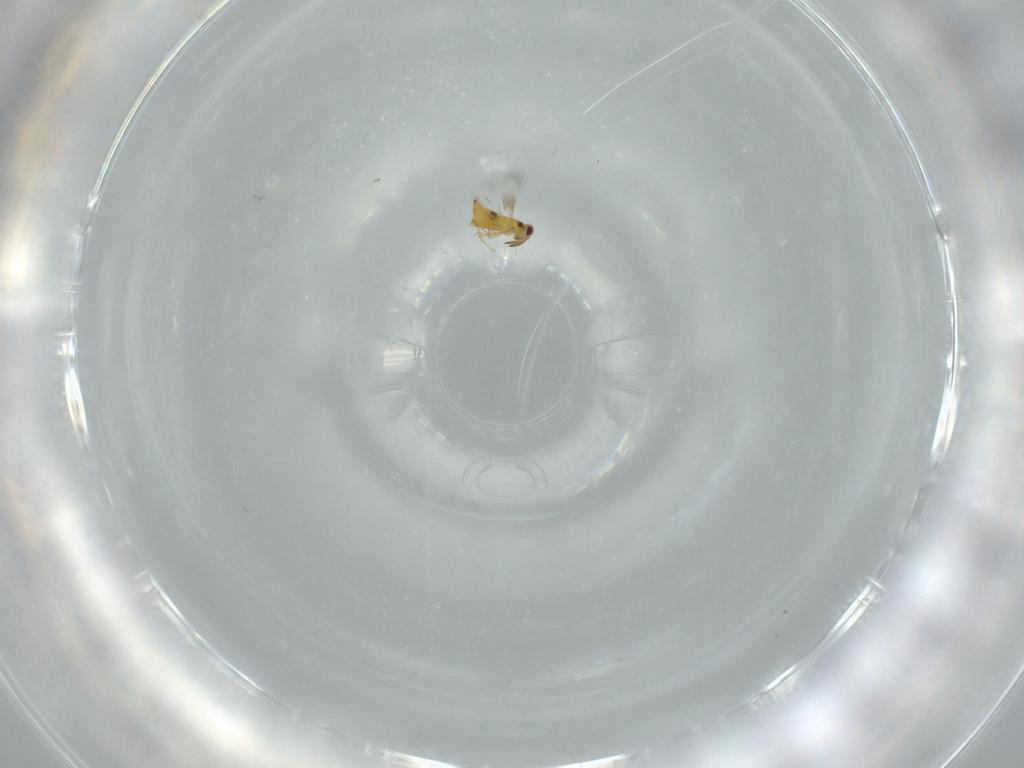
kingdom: Animalia
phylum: Arthropoda
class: Insecta
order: Hymenoptera
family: Signiphoridae
